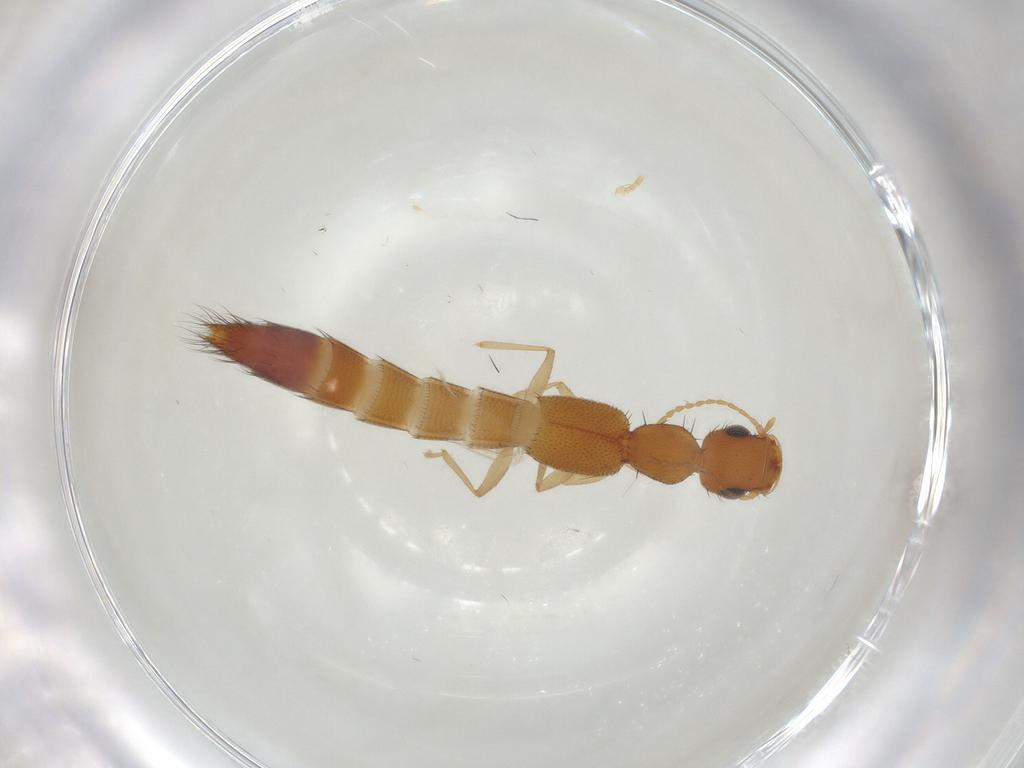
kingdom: Animalia
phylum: Arthropoda
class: Insecta
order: Coleoptera
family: Staphylinidae
